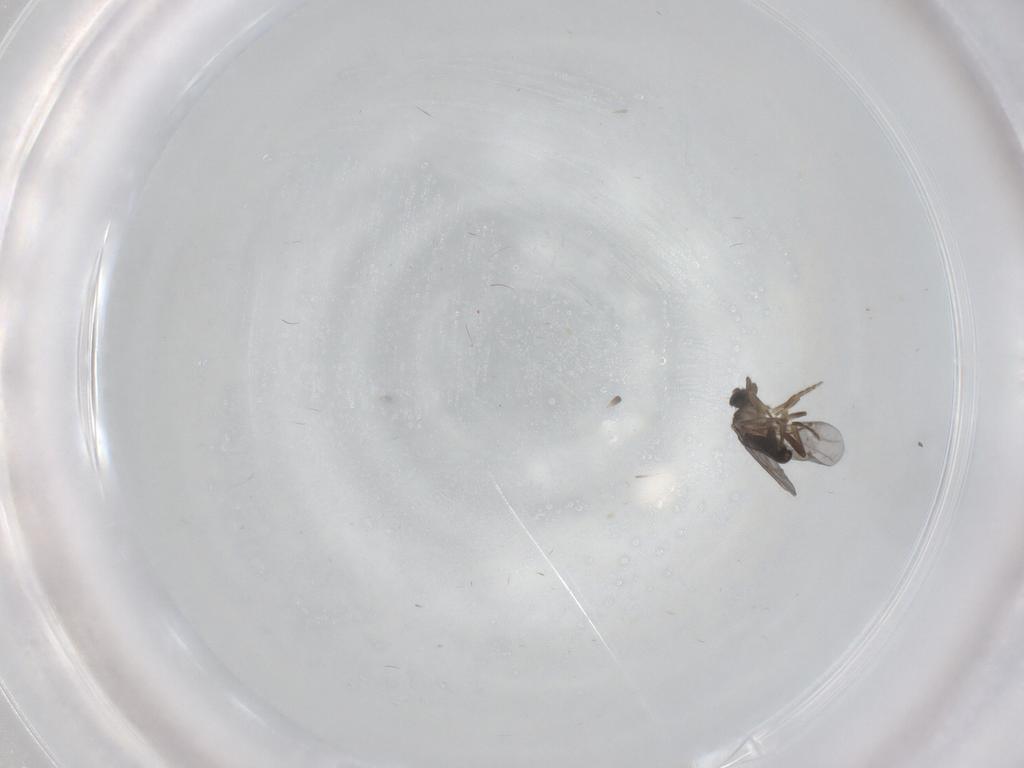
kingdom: Animalia
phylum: Arthropoda
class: Insecta
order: Diptera
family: Limoniidae
